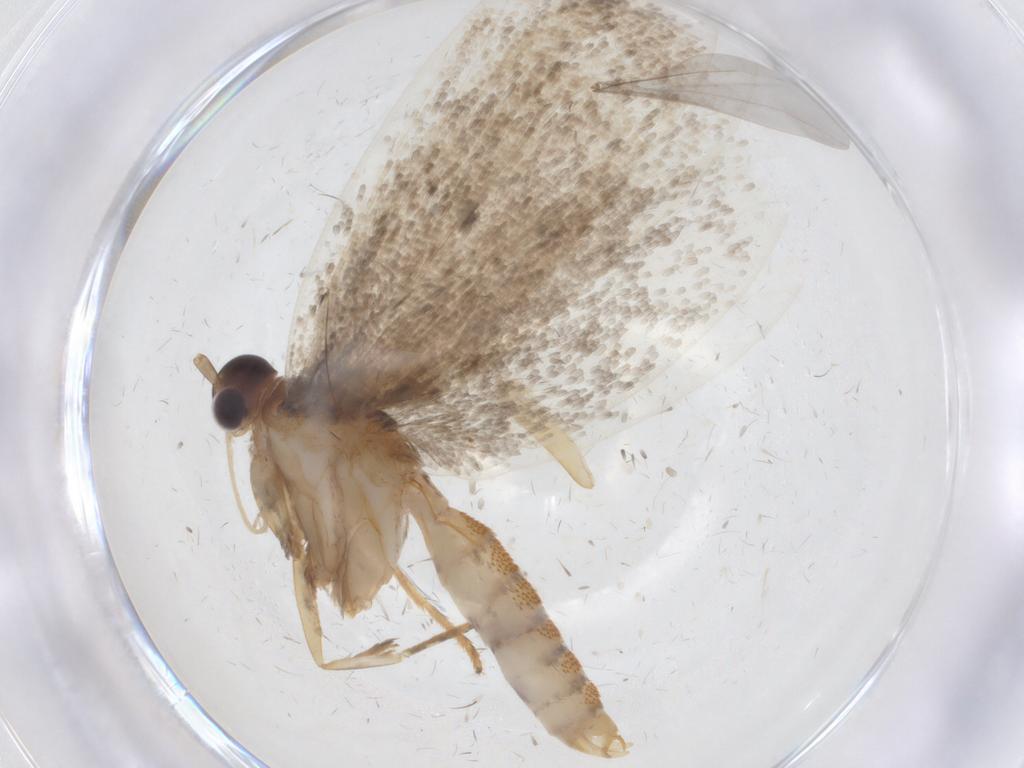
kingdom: Animalia
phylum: Arthropoda
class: Insecta
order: Lepidoptera
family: Oecophoridae
